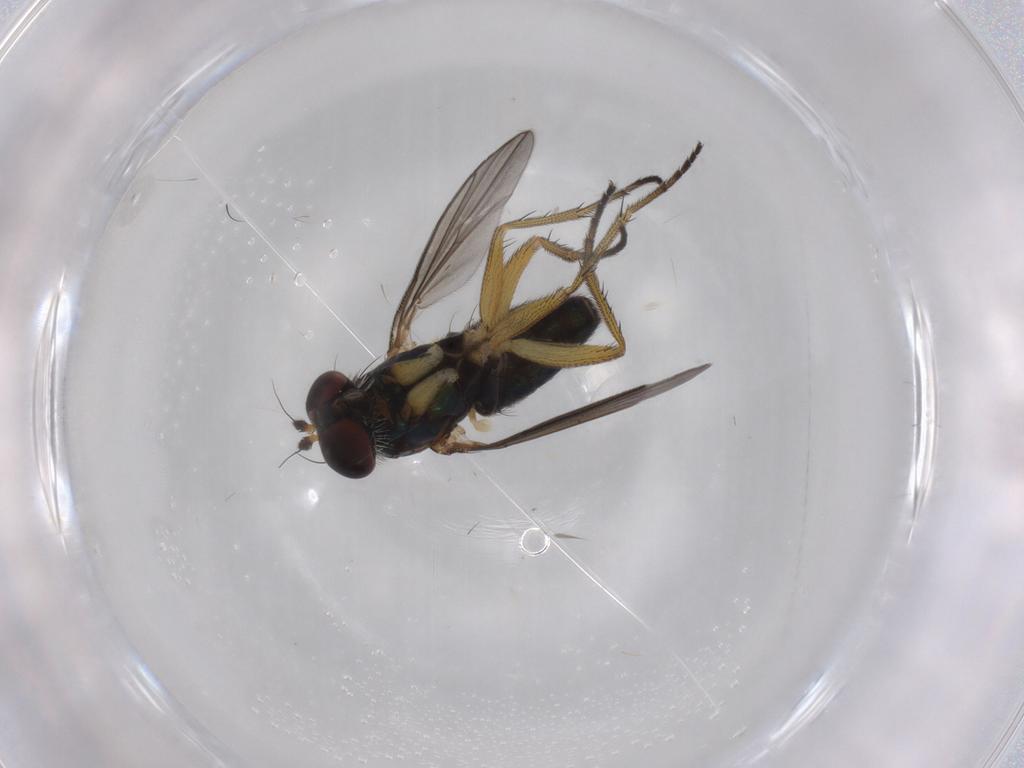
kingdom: Animalia
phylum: Arthropoda
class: Insecta
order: Diptera
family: Dolichopodidae
